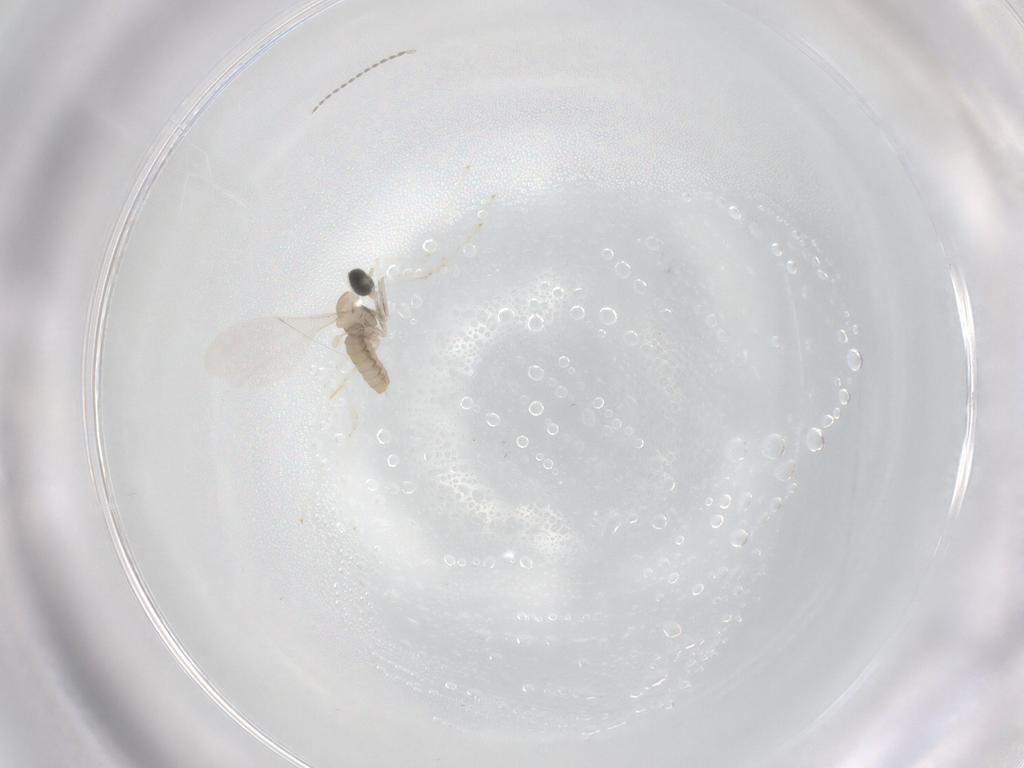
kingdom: Animalia
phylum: Arthropoda
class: Insecta
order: Diptera
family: Cecidomyiidae
